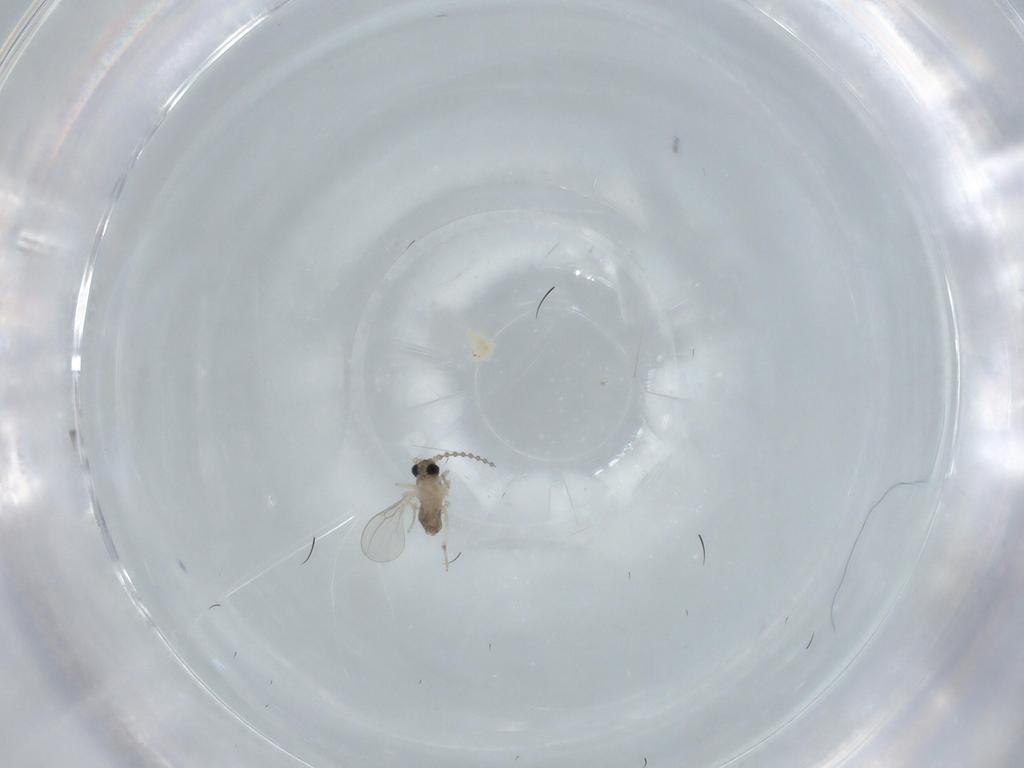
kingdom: Animalia
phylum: Arthropoda
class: Insecta
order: Diptera
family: Cecidomyiidae
